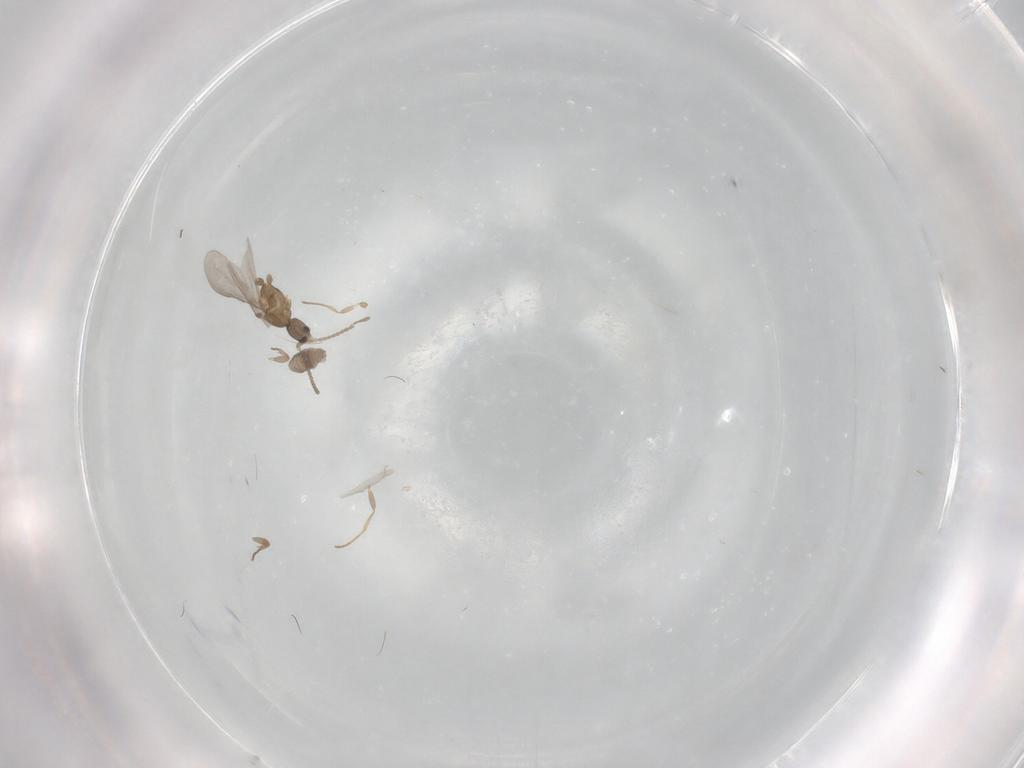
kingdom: Animalia
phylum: Arthropoda
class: Insecta
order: Hymenoptera
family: Formicidae
